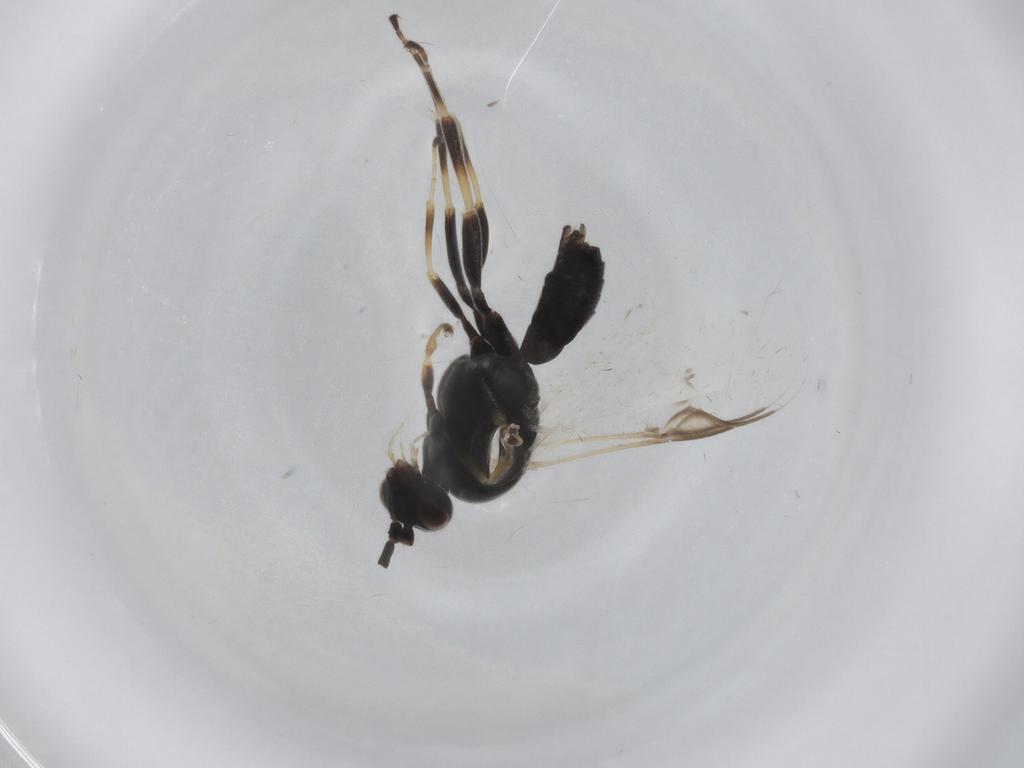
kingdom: Animalia
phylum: Arthropoda
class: Insecta
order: Hymenoptera
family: Braconidae
